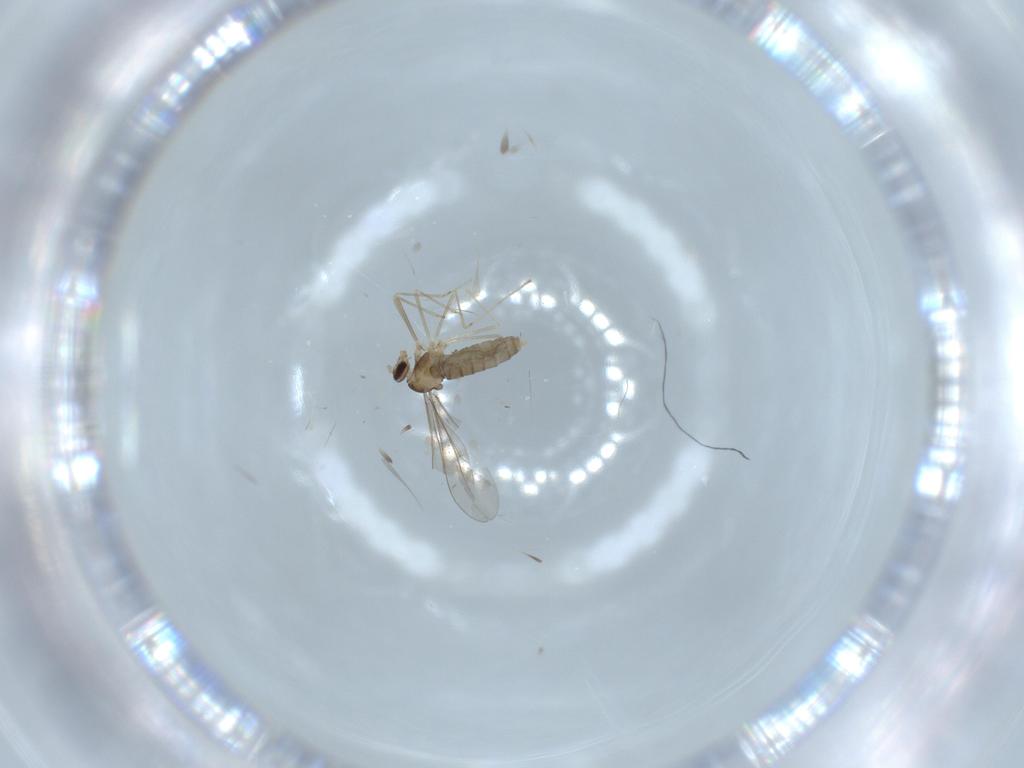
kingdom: Animalia
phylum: Arthropoda
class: Insecta
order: Diptera
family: Cecidomyiidae
